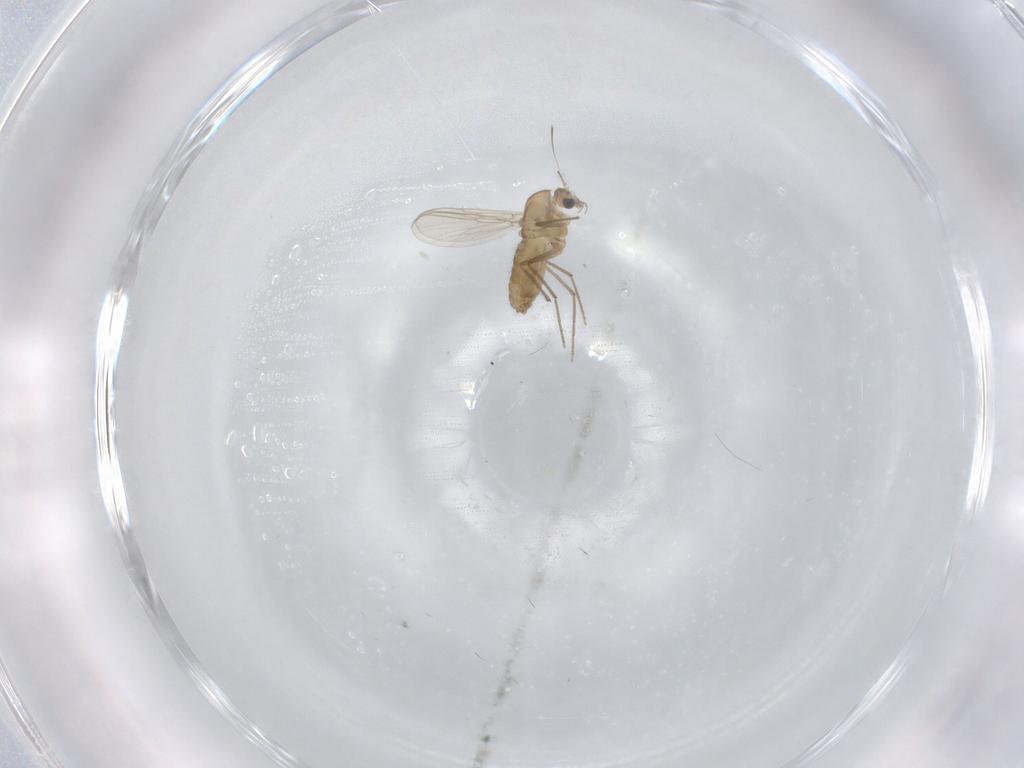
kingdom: Animalia
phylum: Arthropoda
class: Insecta
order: Diptera
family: Chironomidae
